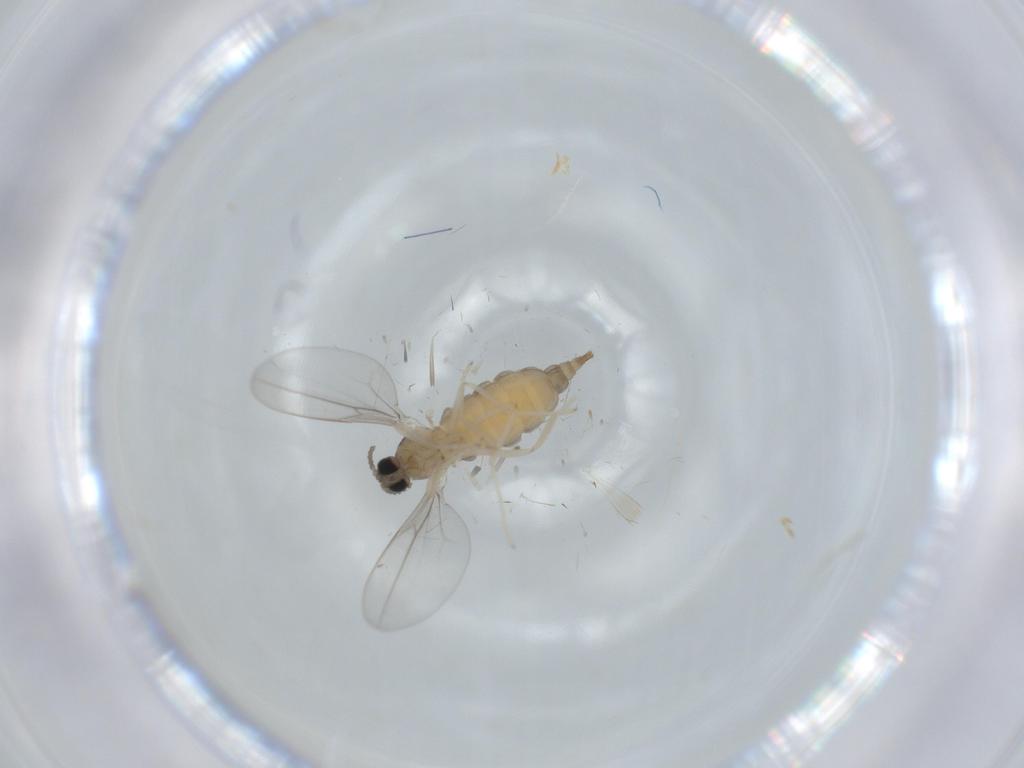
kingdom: Animalia
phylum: Arthropoda
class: Insecta
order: Diptera
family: Cecidomyiidae
